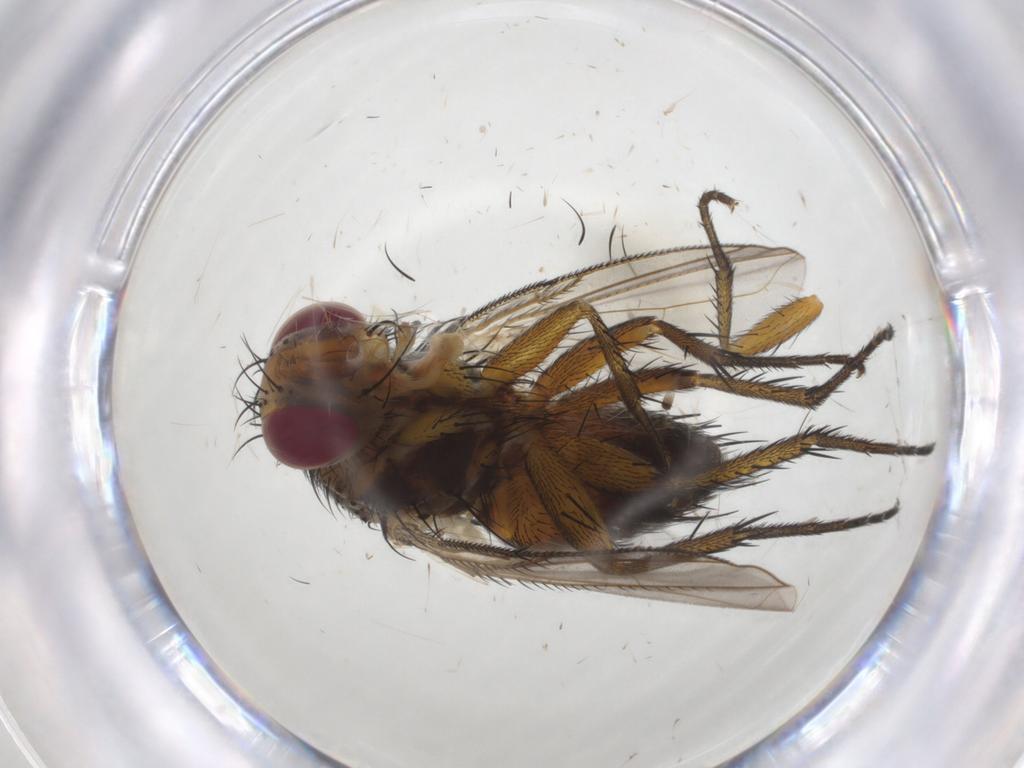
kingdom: Animalia
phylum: Arthropoda
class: Insecta
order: Diptera
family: Tachinidae
